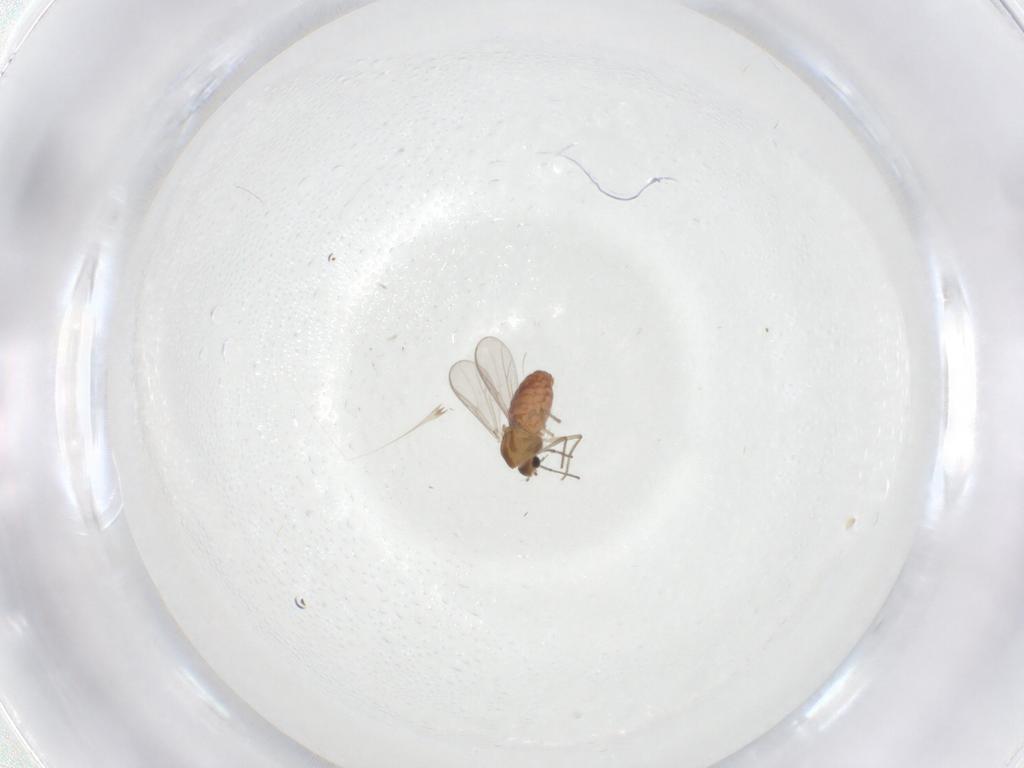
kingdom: Animalia
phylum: Arthropoda
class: Insecta
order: Diptera
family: Chironomidae
